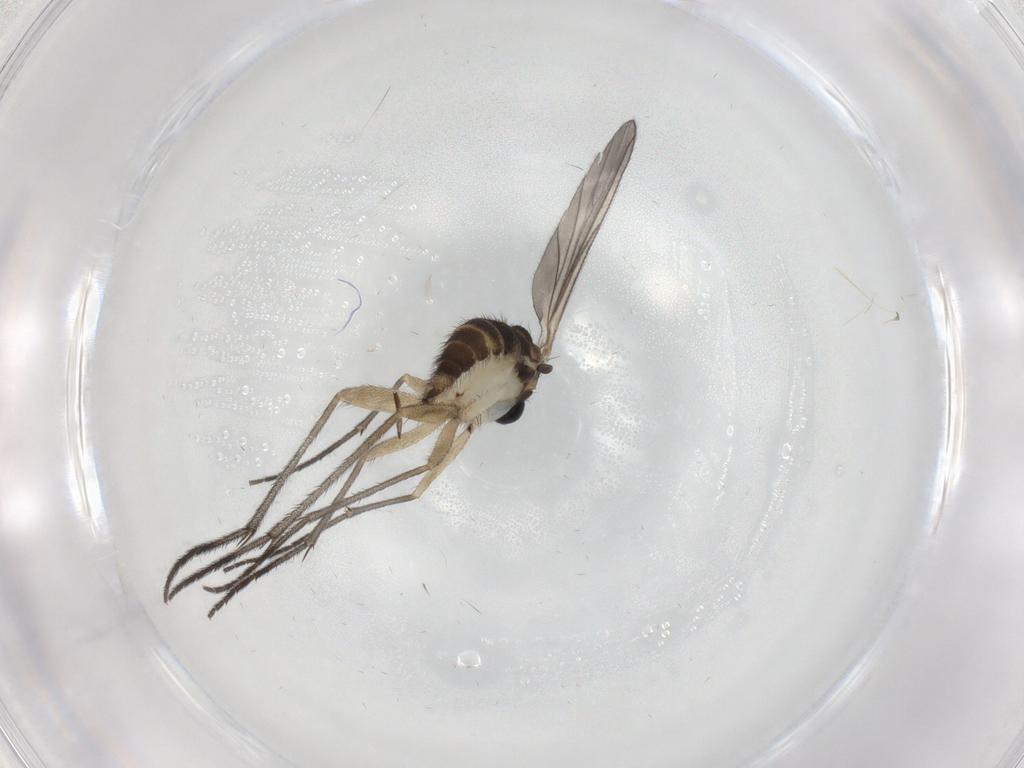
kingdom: Animalia
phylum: Arthropoda
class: Insecta
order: Diptera
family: Sciaridae
